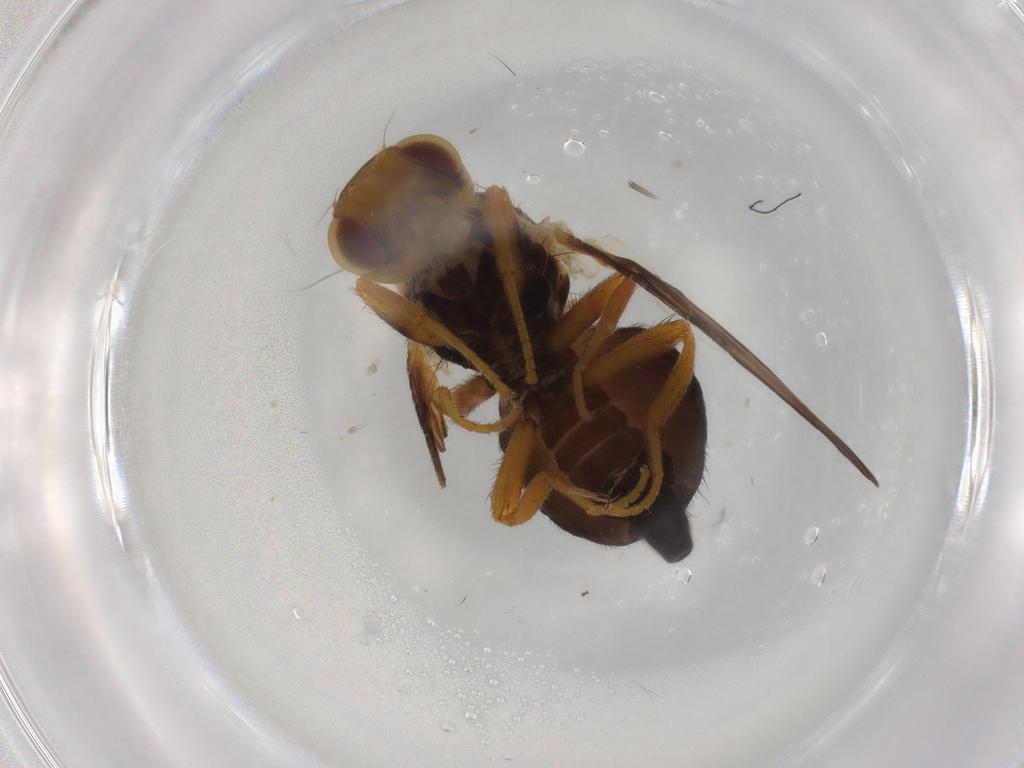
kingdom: Animalia
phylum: Arthropoda
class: Insecta
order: Diptera
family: Tephritidae
